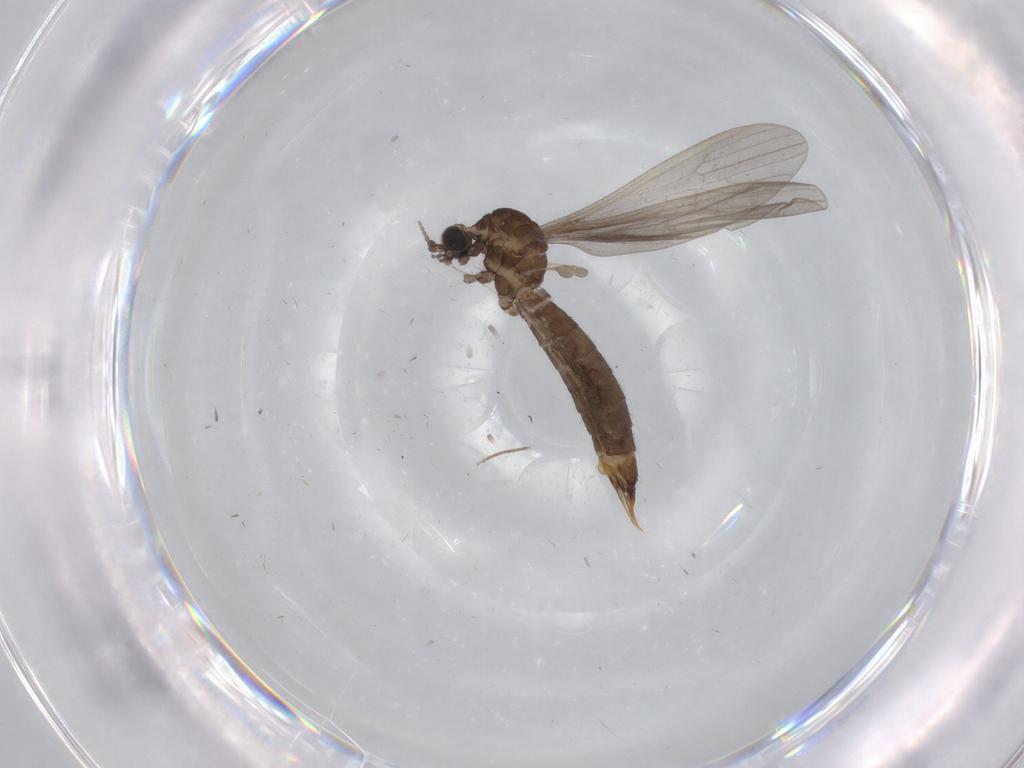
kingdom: Animalia
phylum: Arthropoda
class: Insecta
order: Diptera
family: Limoniidae
